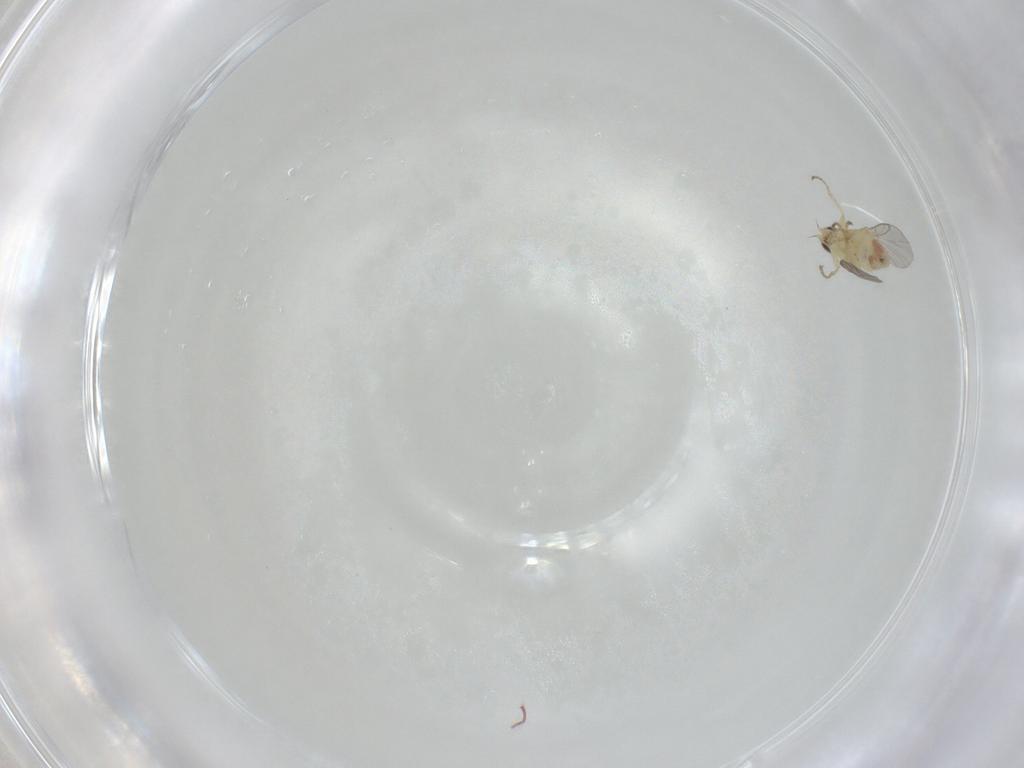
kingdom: Animalia
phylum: Arthropoda
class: Insecta
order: Diptera
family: Agromyzidae
